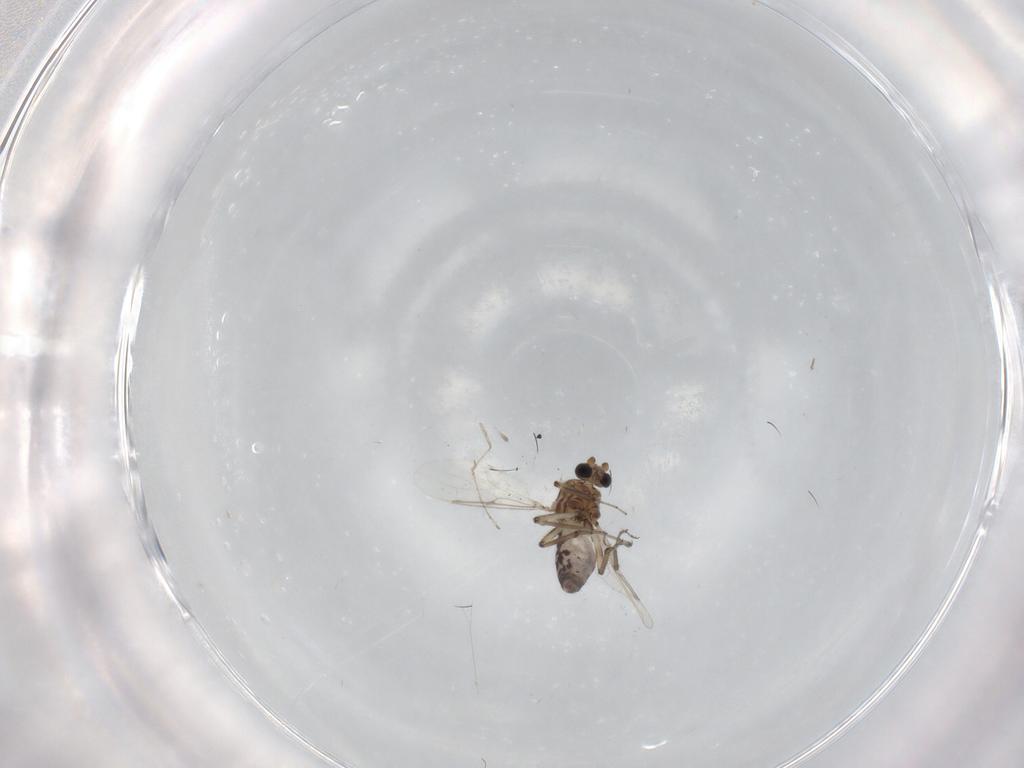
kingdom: Animalia
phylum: Arthropoda
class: Insecta
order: Diptera
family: Ceratopogonidae
